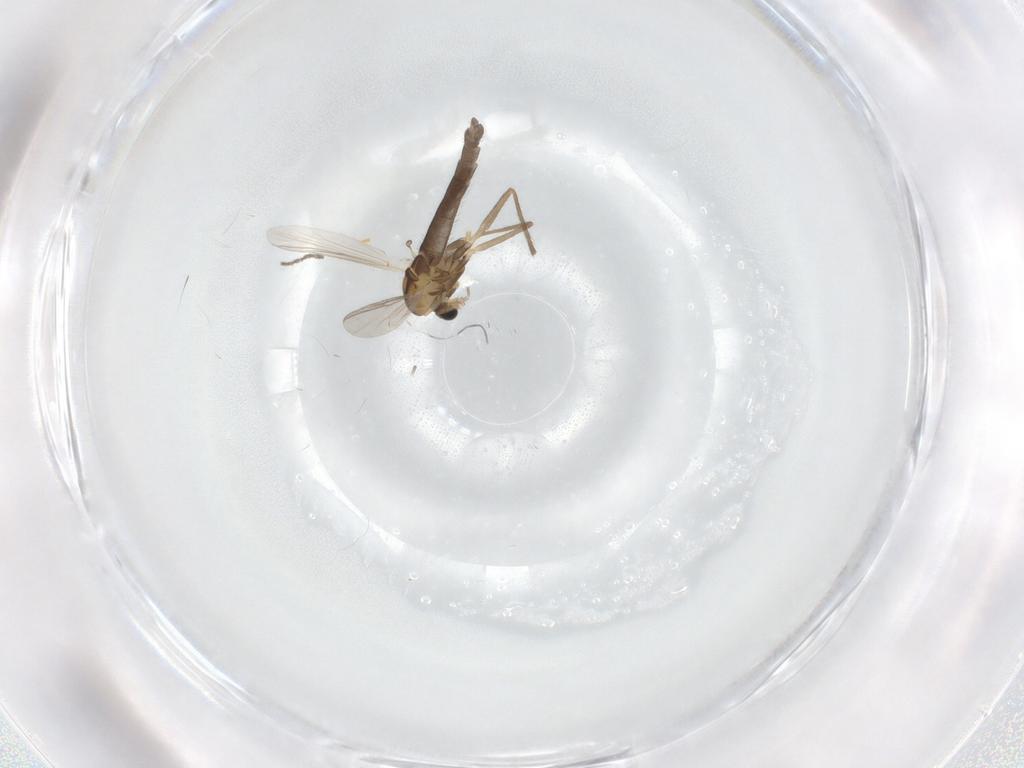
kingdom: Animalia
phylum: Arthropoda
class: Insecta
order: Diptera
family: Chironomidae
